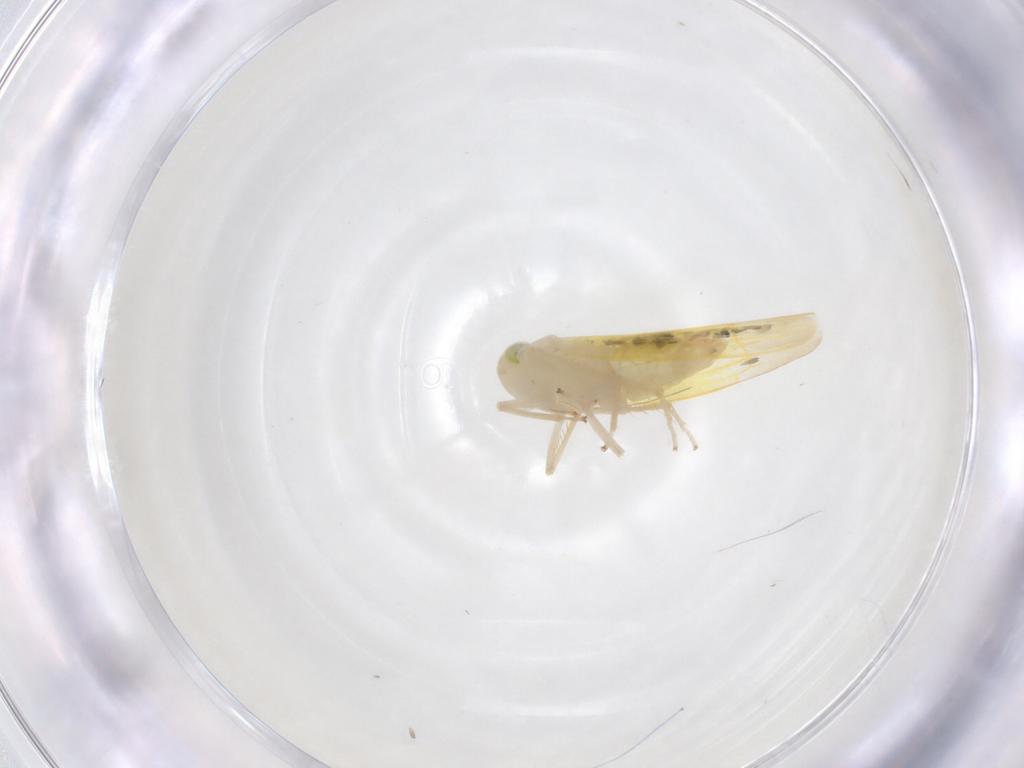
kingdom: Animalia
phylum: Arthropoda
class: Insecta
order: Hemiptera
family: Cicadellidae
